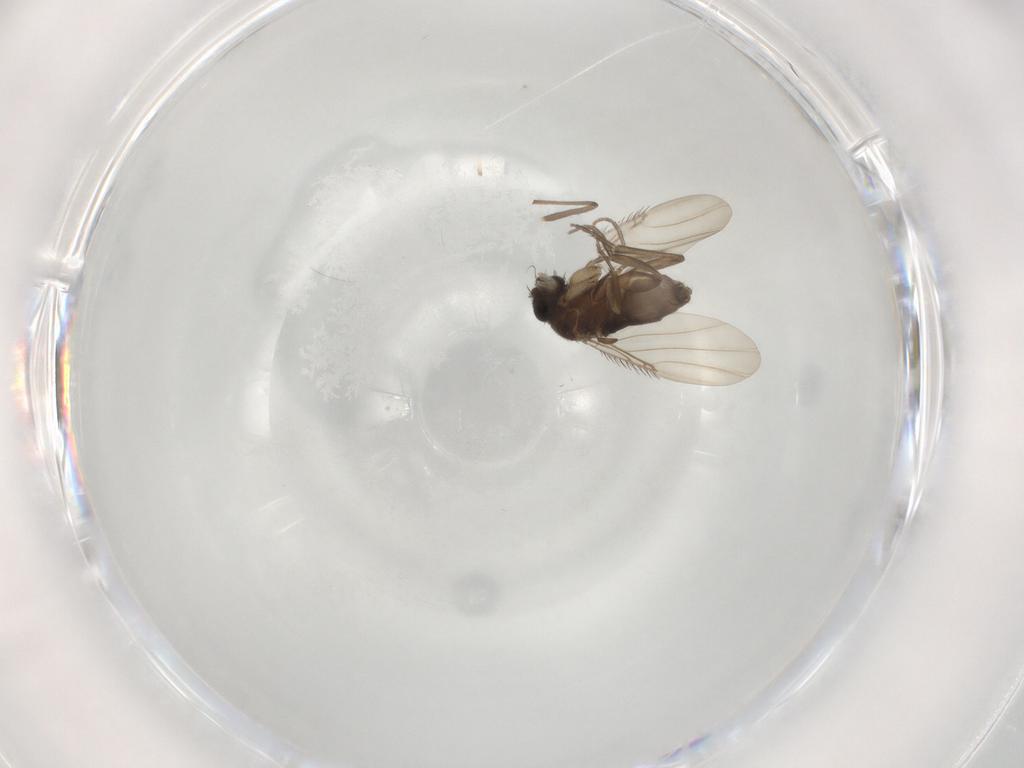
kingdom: Animalia
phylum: Arthropoda
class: Insecta
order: Diptera
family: Phoridae
